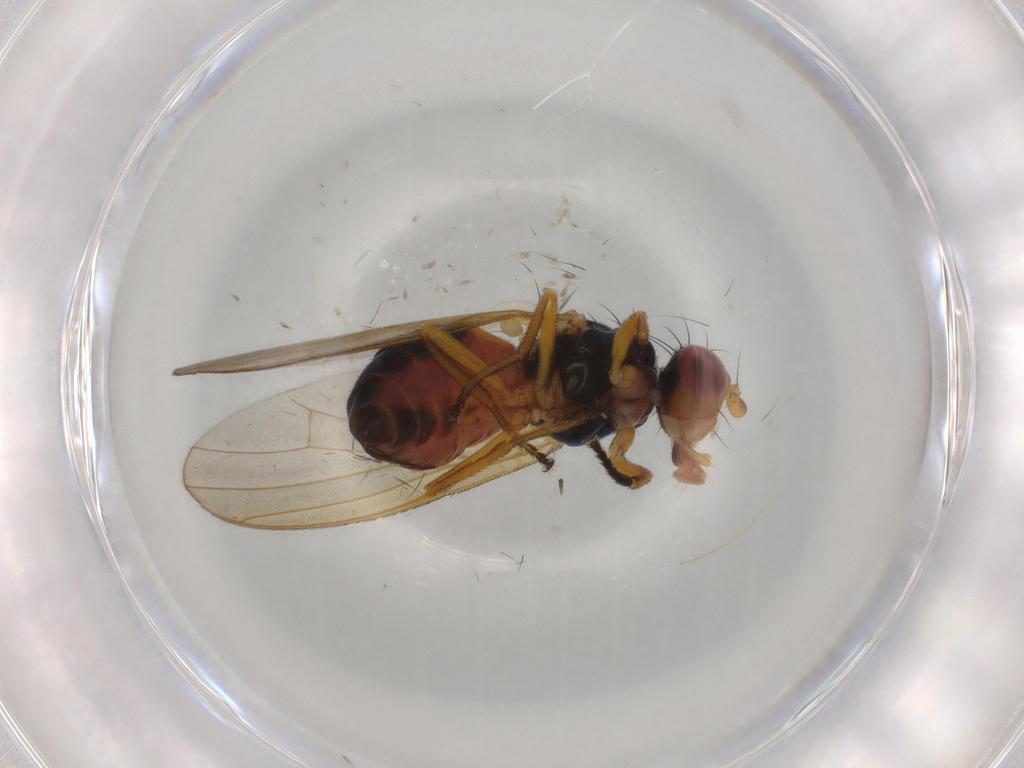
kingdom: Animalia
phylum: Arthropoda
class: Insecta
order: Diptera
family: Piophilidae
